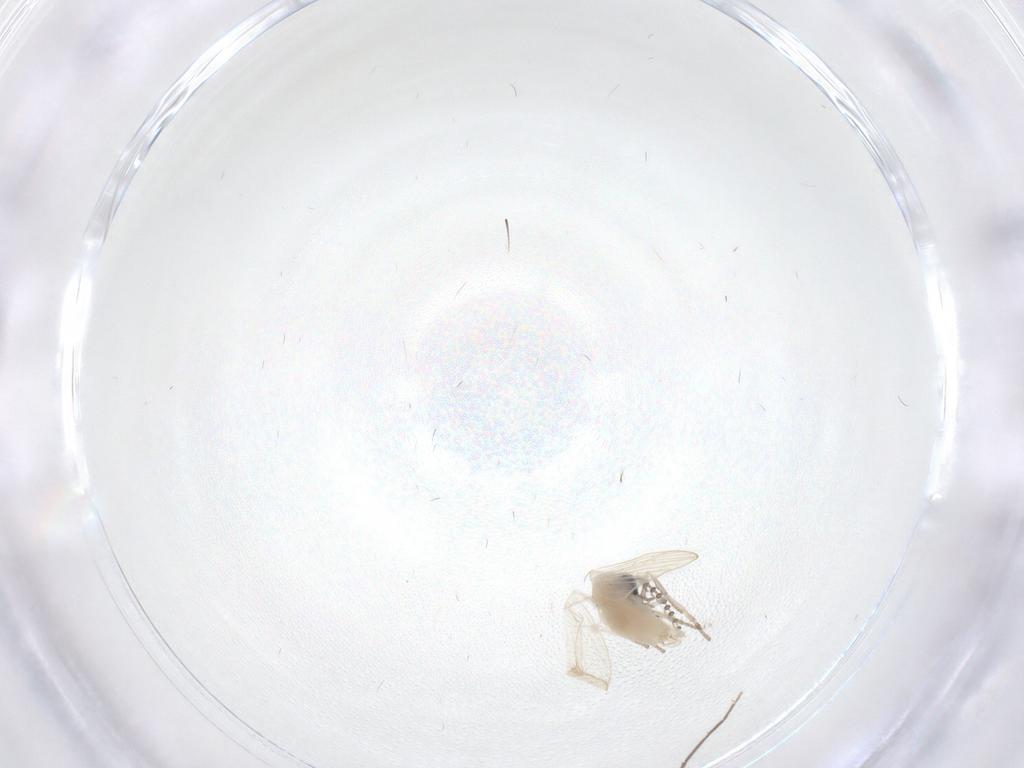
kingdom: Animalia
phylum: Arthropoda
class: Insecta
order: Diptera
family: Psychodidae
